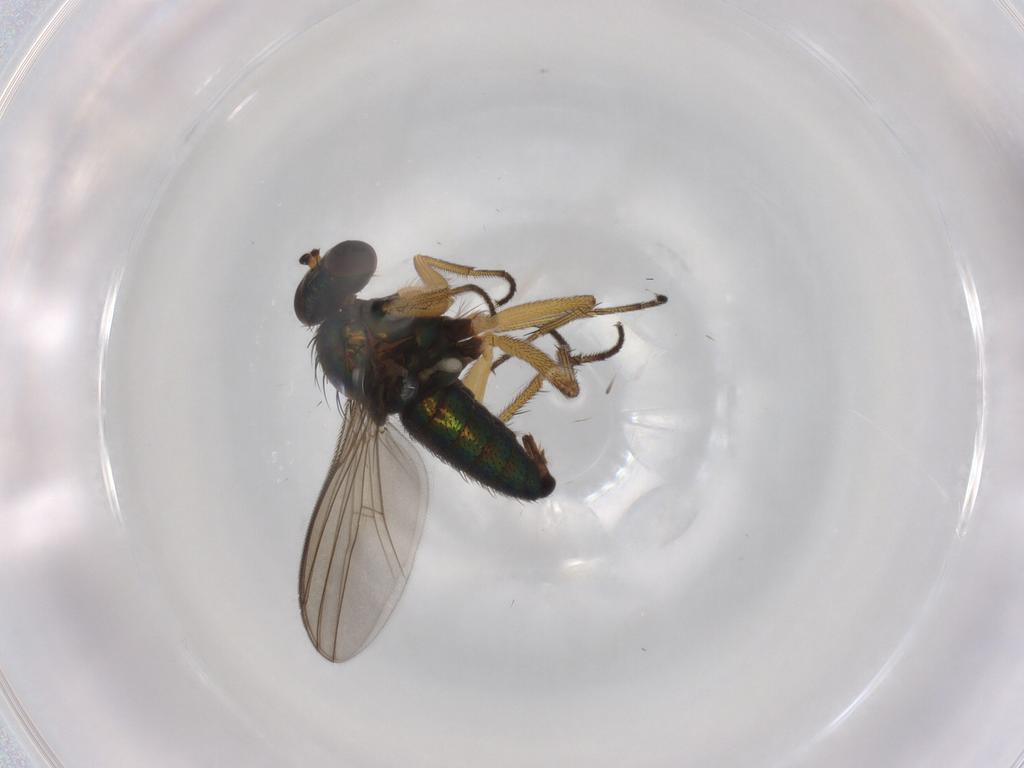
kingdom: Animalia
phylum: Arthropoda
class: Insecta
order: Diptera
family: Dolichopodidae
